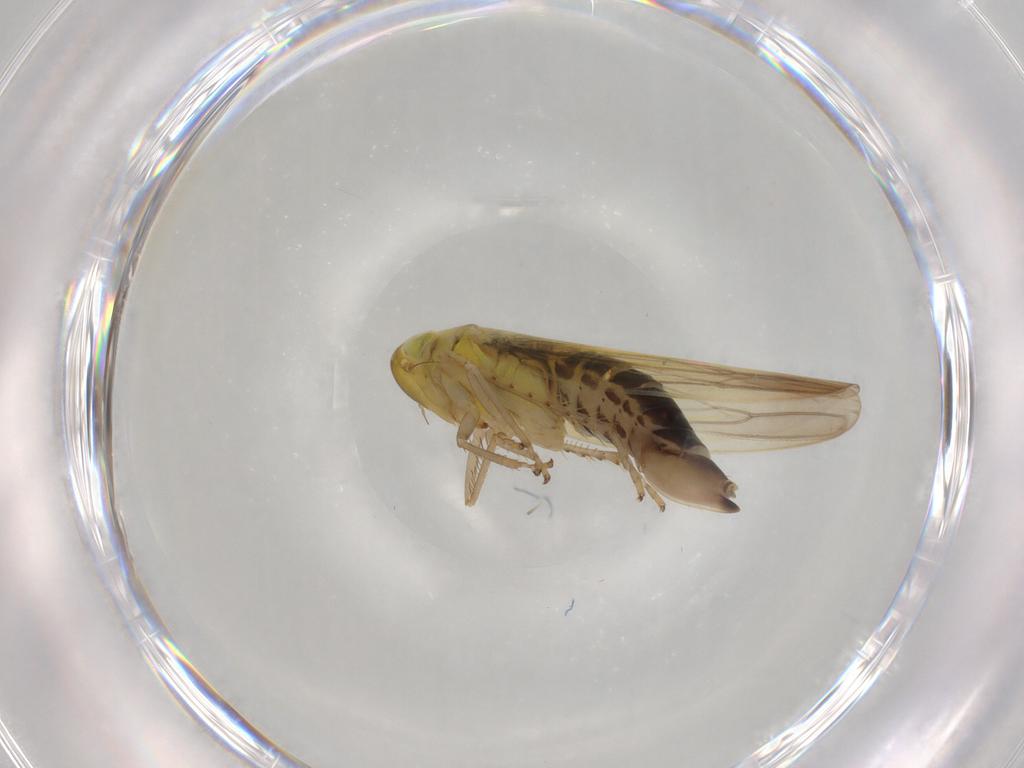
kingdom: Animalia
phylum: Arthropoda
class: Insecta
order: Hemiptera
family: Cicadellidae
